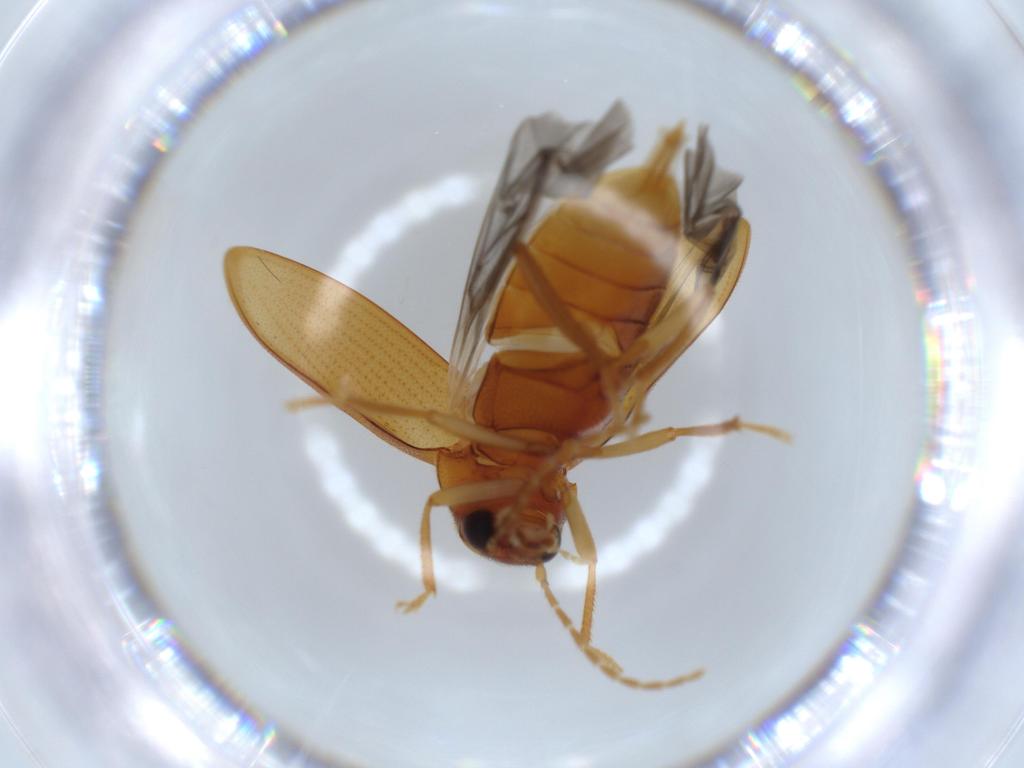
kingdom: Animalia
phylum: Arthropoda
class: Insecta
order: Coleoptera
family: Ptilodactylidae
